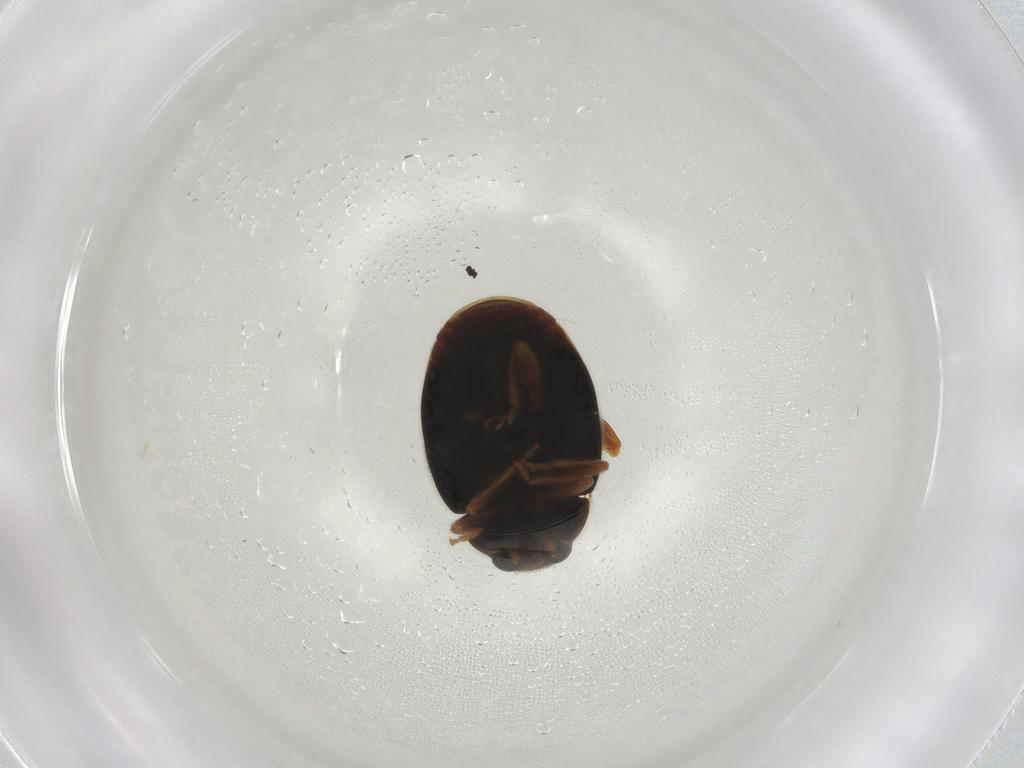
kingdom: Animalia
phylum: Arthropoda
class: Insecta
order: Coleoptera
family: Coccinellidae
